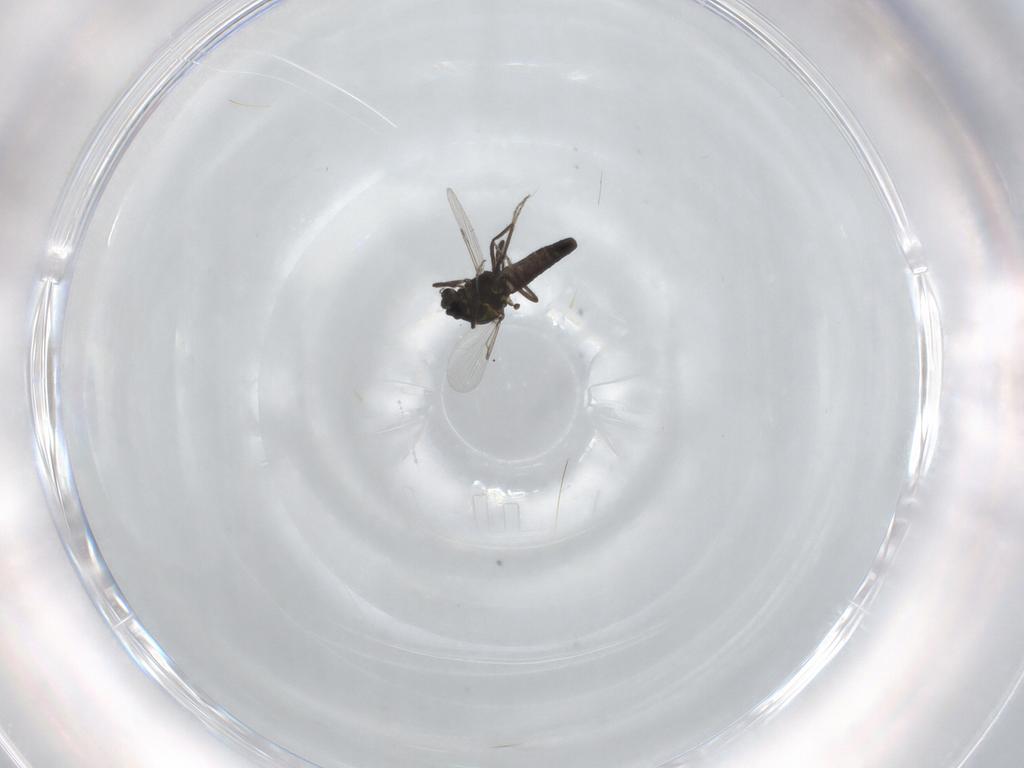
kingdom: Animalia
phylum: Arthropoda
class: Insecta
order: Diptera
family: Ceratopogonidae
